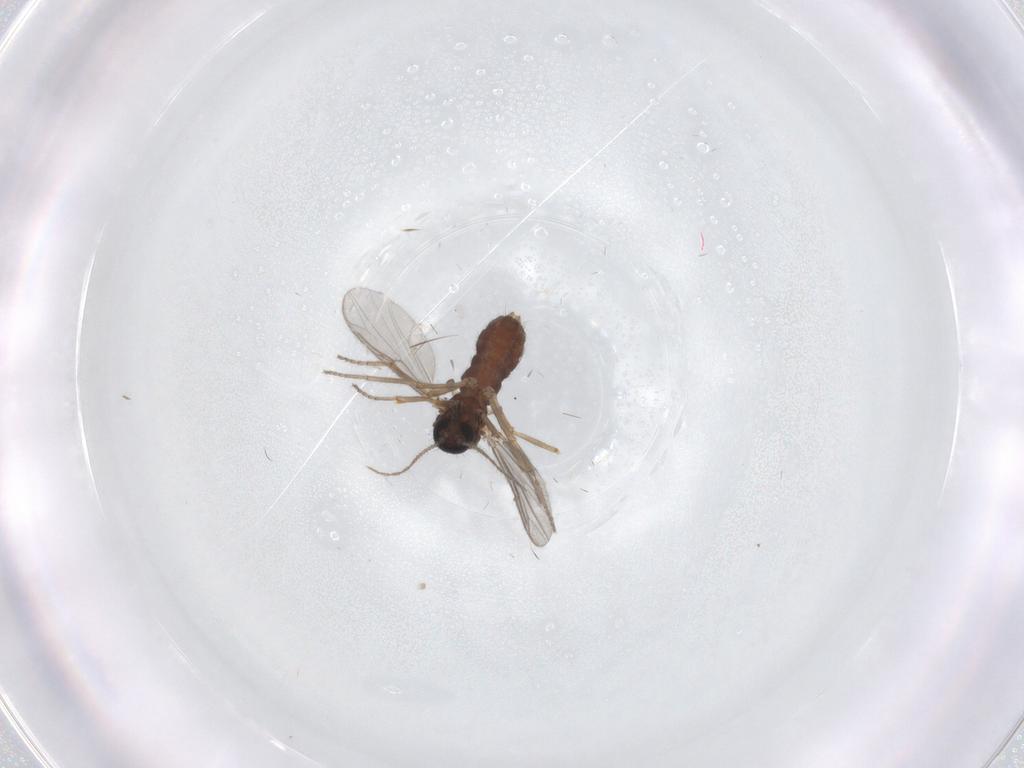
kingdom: Animalia
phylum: Arthropoda
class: Insecta
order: Diptera
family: Ceratopogonidae
